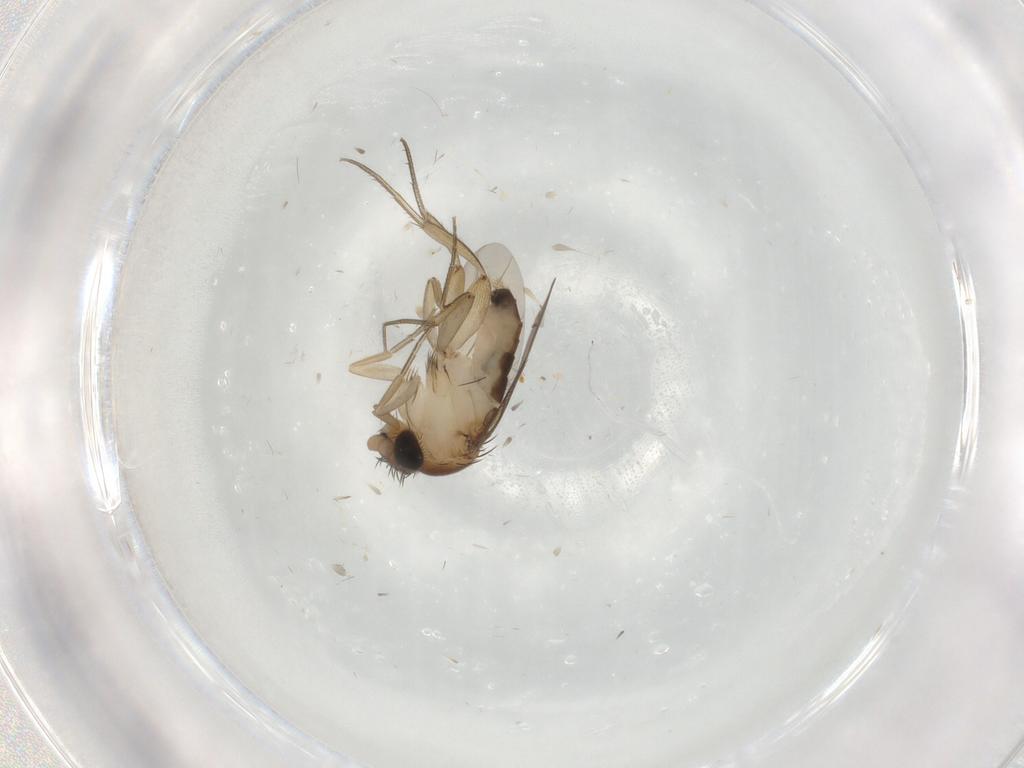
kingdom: Animalia
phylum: Arthropoda
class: Insecta
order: Diptera
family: Phoridae
